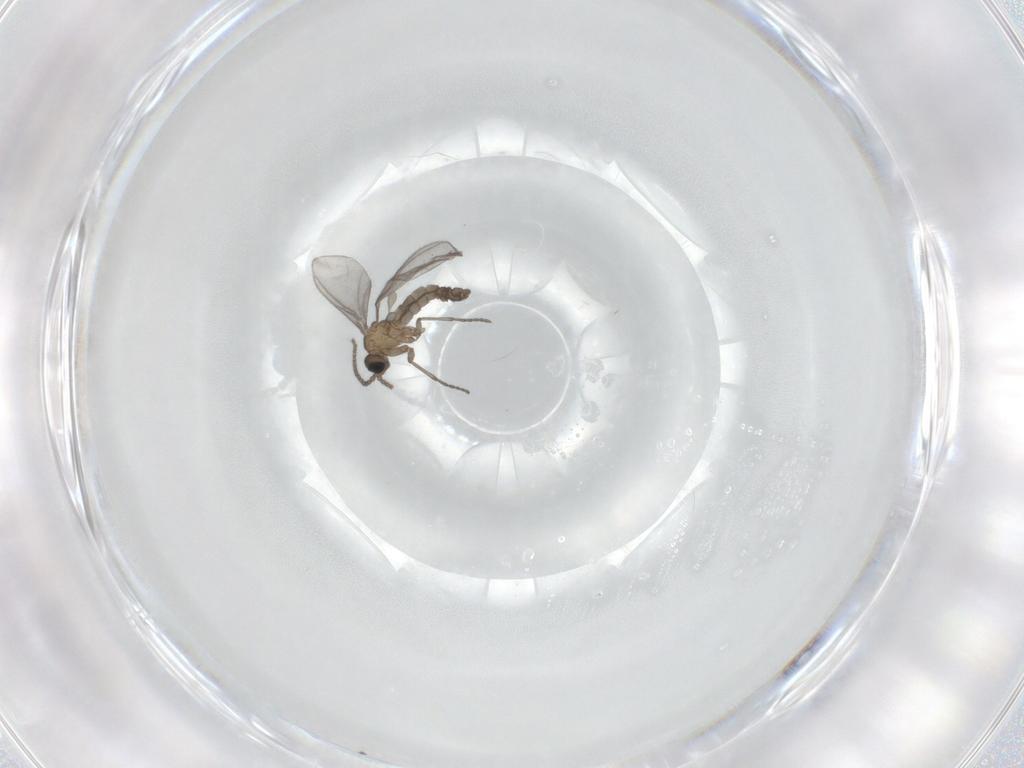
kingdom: Animalia
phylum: Arthropoda
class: Insecta
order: Diptera
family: Sciaridae
